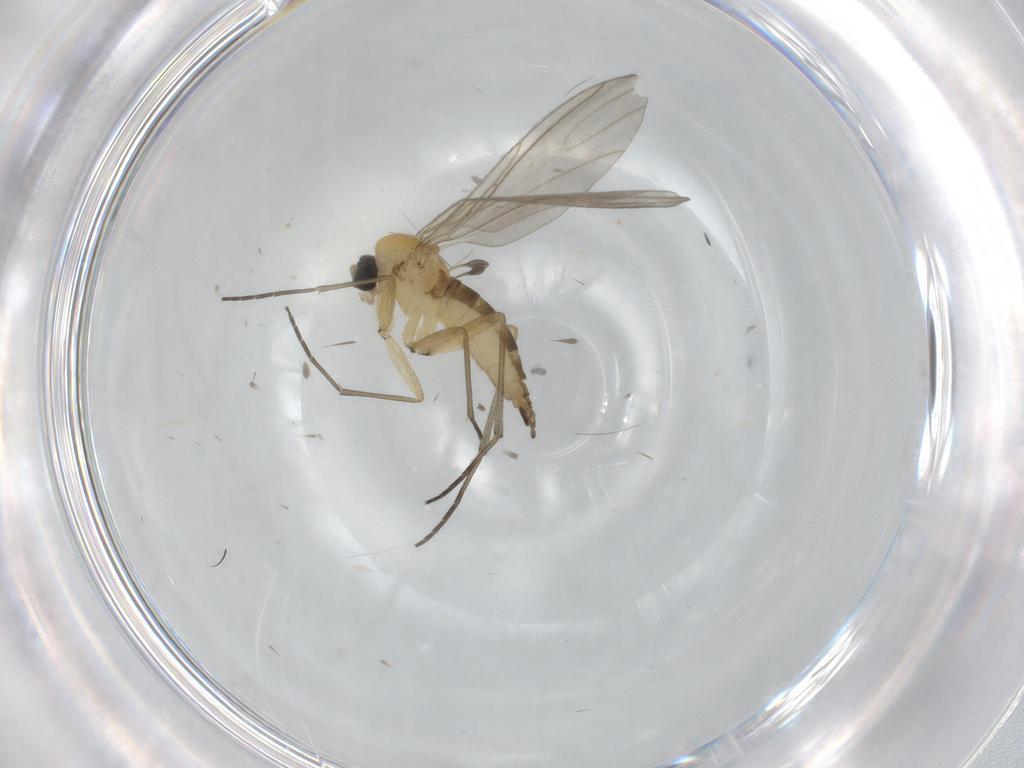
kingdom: Animalia
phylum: Arthropoda
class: Insecta
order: Diptera
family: Sciaridae
